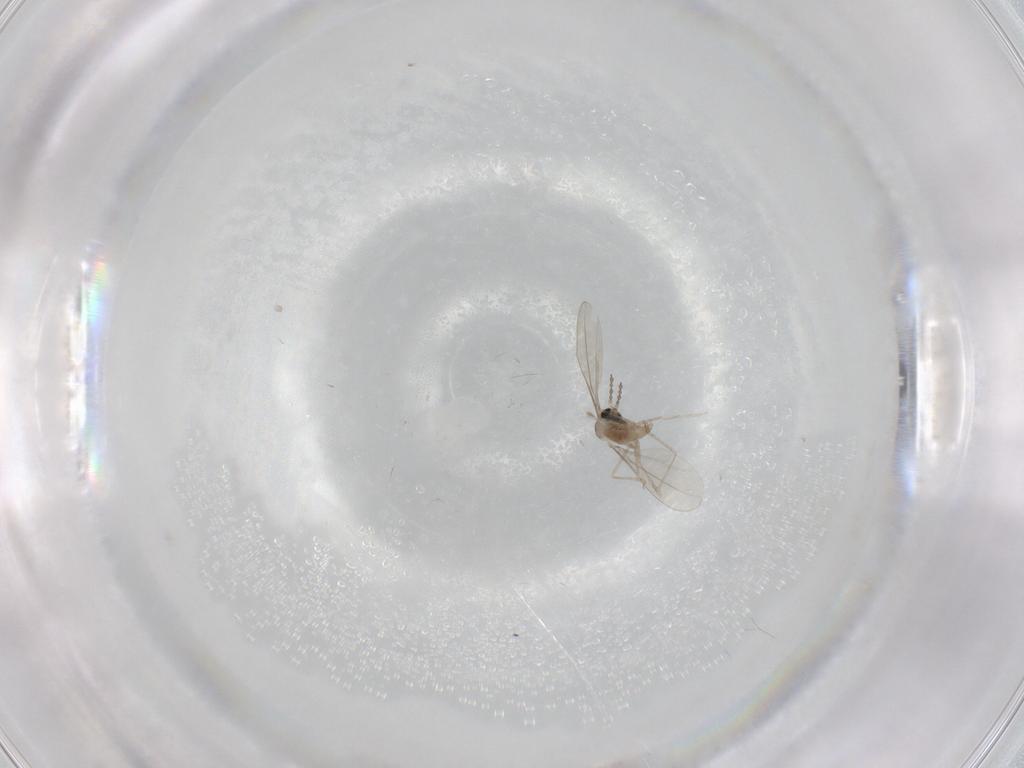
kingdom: Animalia
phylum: Arthropoda
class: Insecta
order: Diptera
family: Cecidomyiidae
